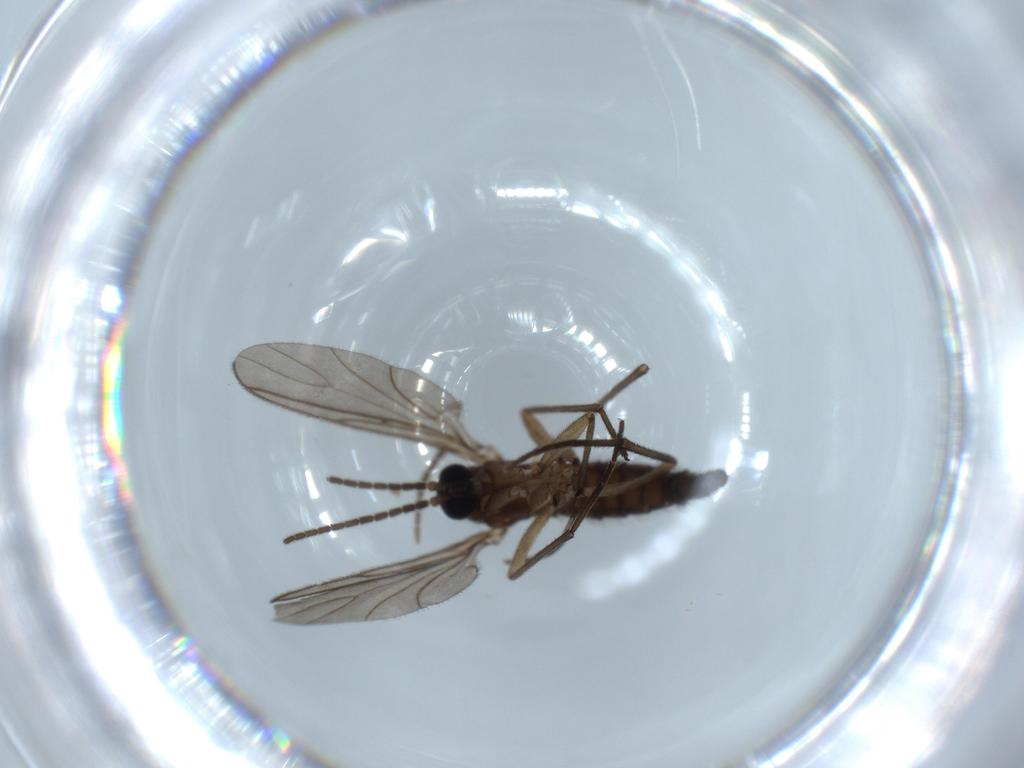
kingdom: Animalia
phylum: Arthropoda
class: Insecta
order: Diptera
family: Sciaridae
